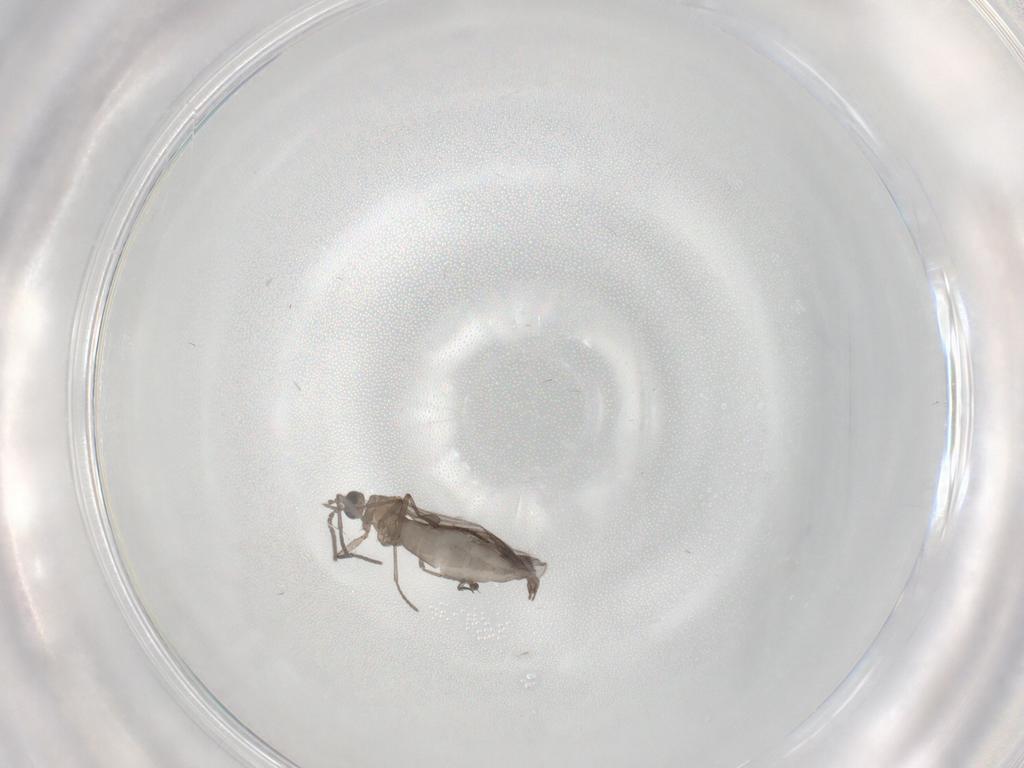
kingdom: Animalia
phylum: Arthropoda
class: Insecta
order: Diptera
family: Sciaridae
